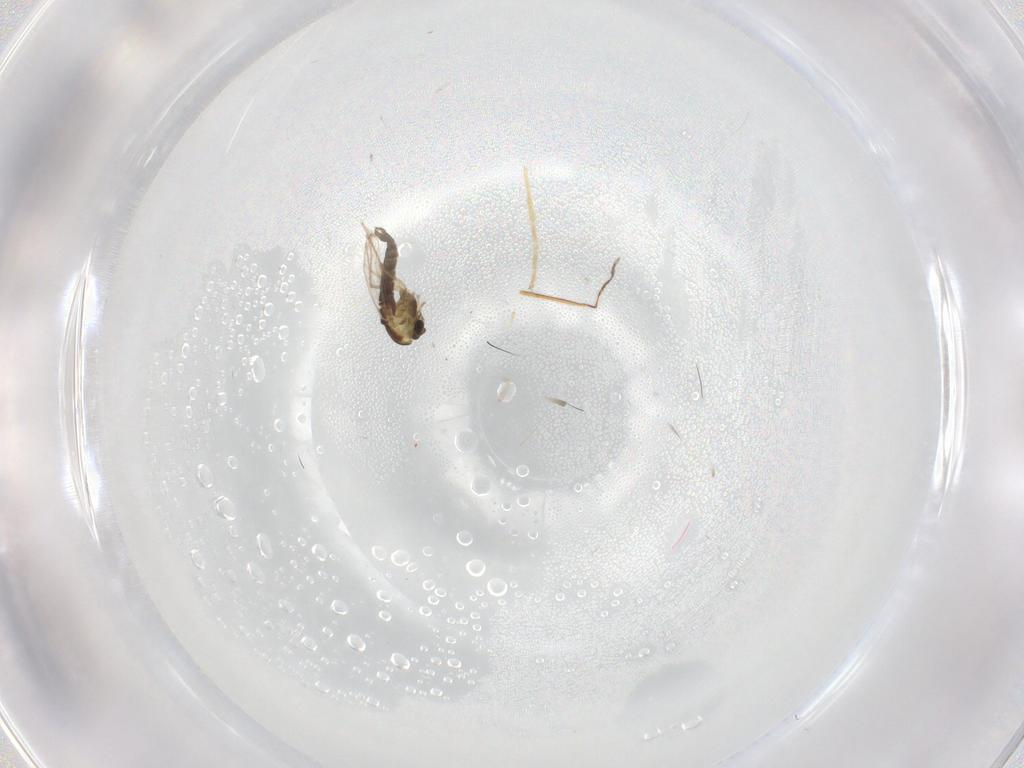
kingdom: Animalia
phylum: Arthropoda
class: Insecta
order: Diptera
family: Chironomidae
